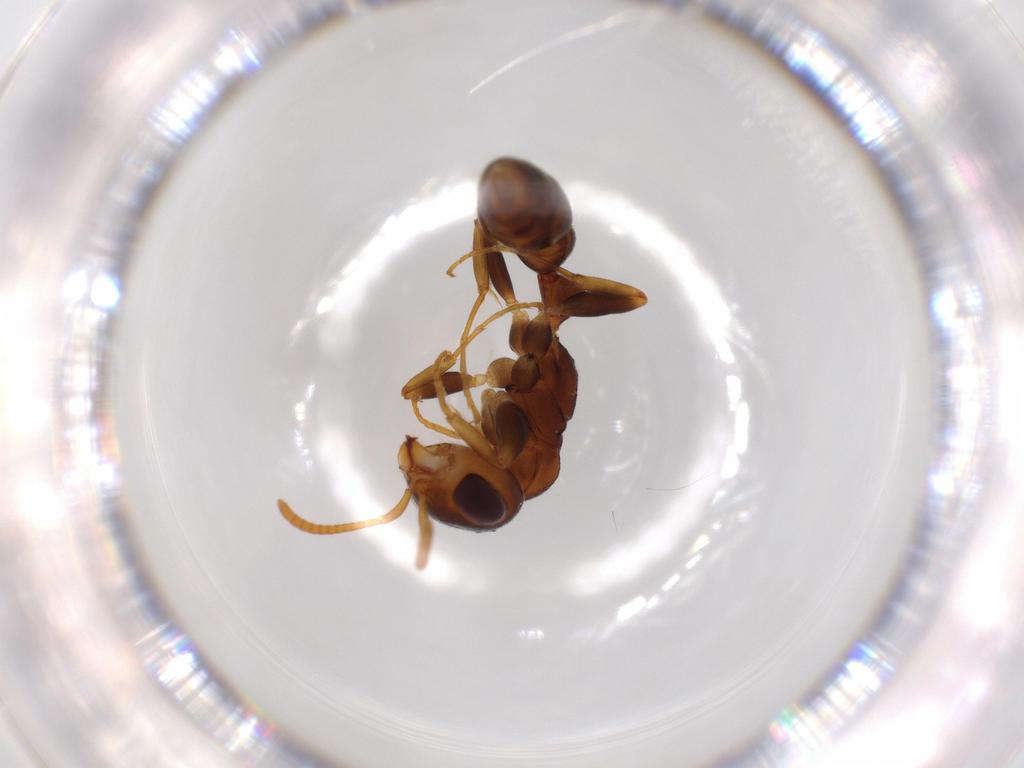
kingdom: Animalia
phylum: Arthropoda
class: Insecta
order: Hymenoptera
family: Formicidae
